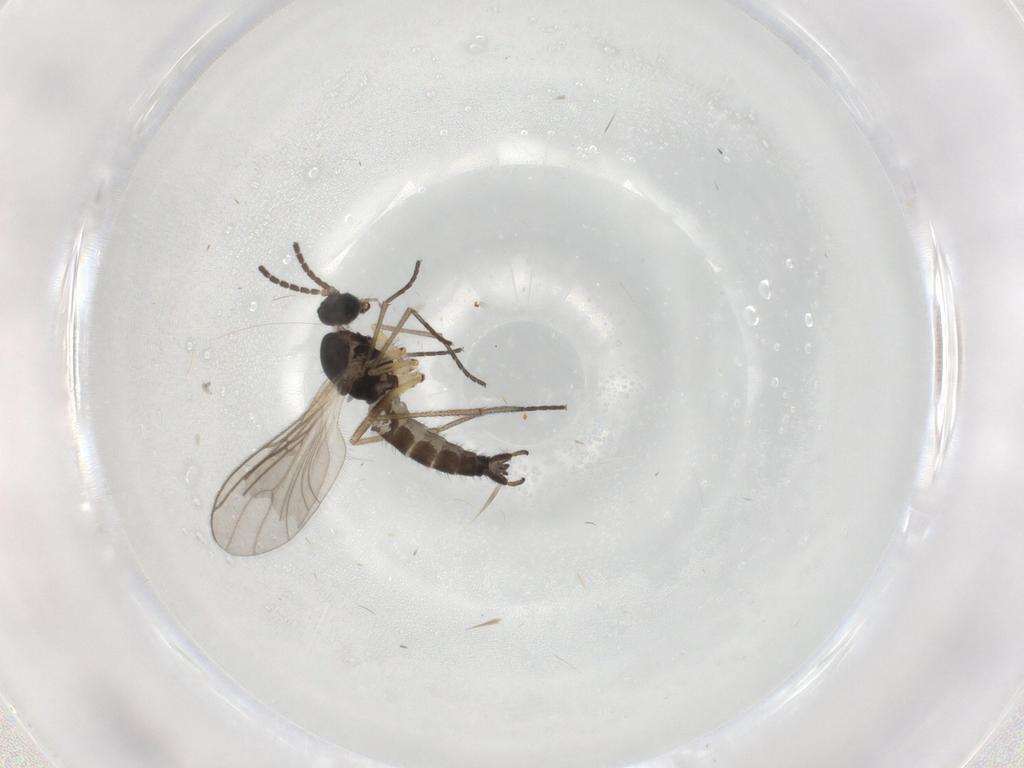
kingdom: Animalia
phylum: Arthropoda
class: Insecta
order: Diptera
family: Sciaridae
